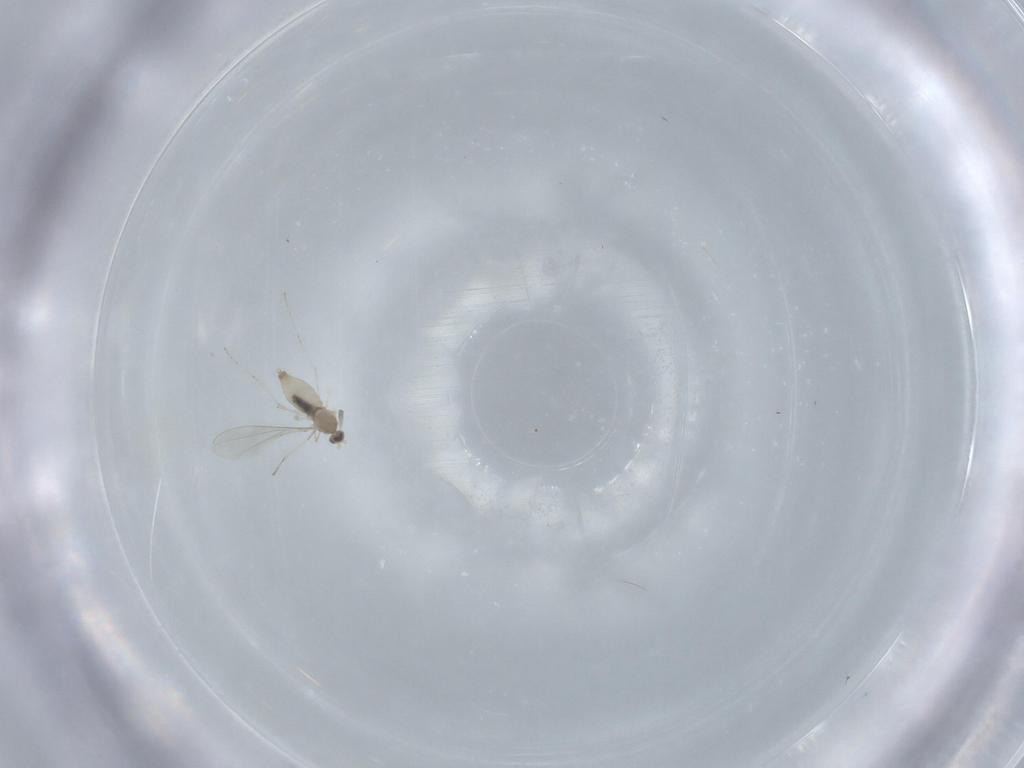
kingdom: Animalia
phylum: Arthropoda
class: Insecta
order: Diptera
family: Cecidomyiidae
